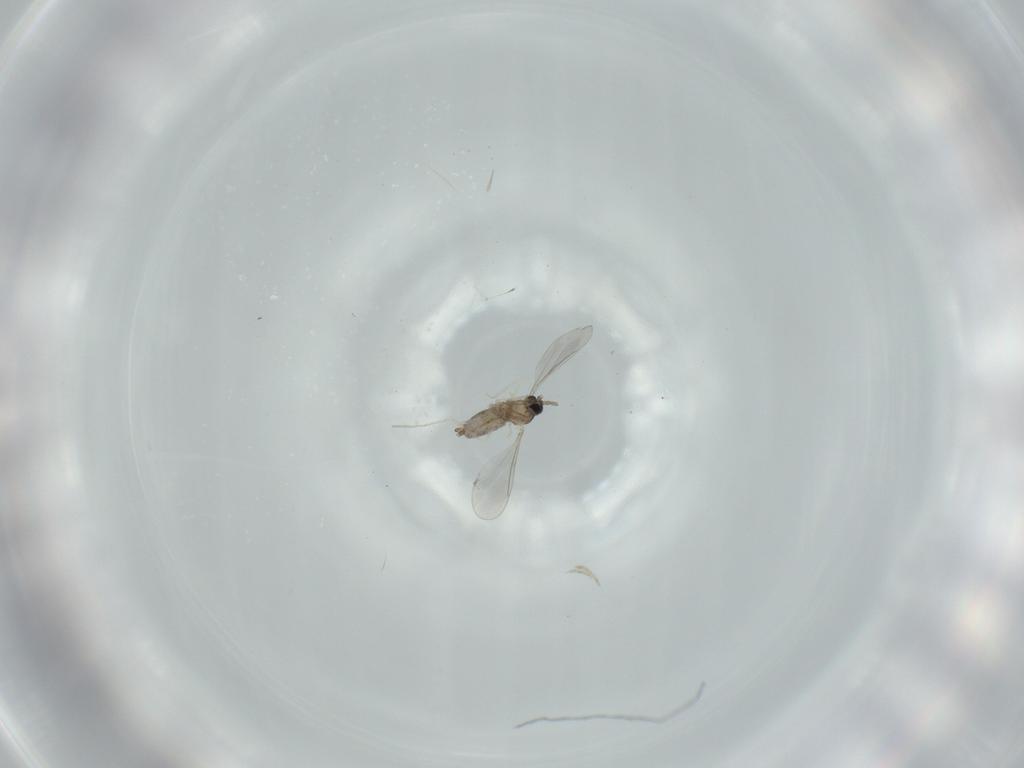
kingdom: Animalia
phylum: Arthropoda
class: Insecta
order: Diptera
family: Cecidomyiidae
